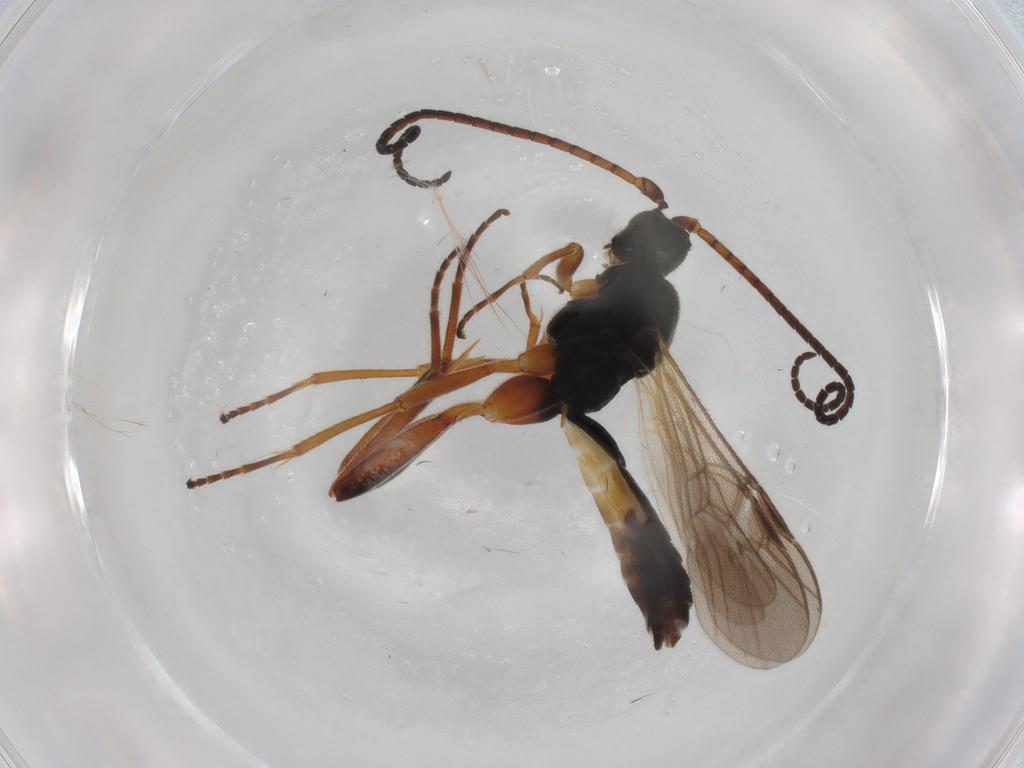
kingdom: Animalia
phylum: Arthropoda
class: Insecta
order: Hymenoptera
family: Braconidae
